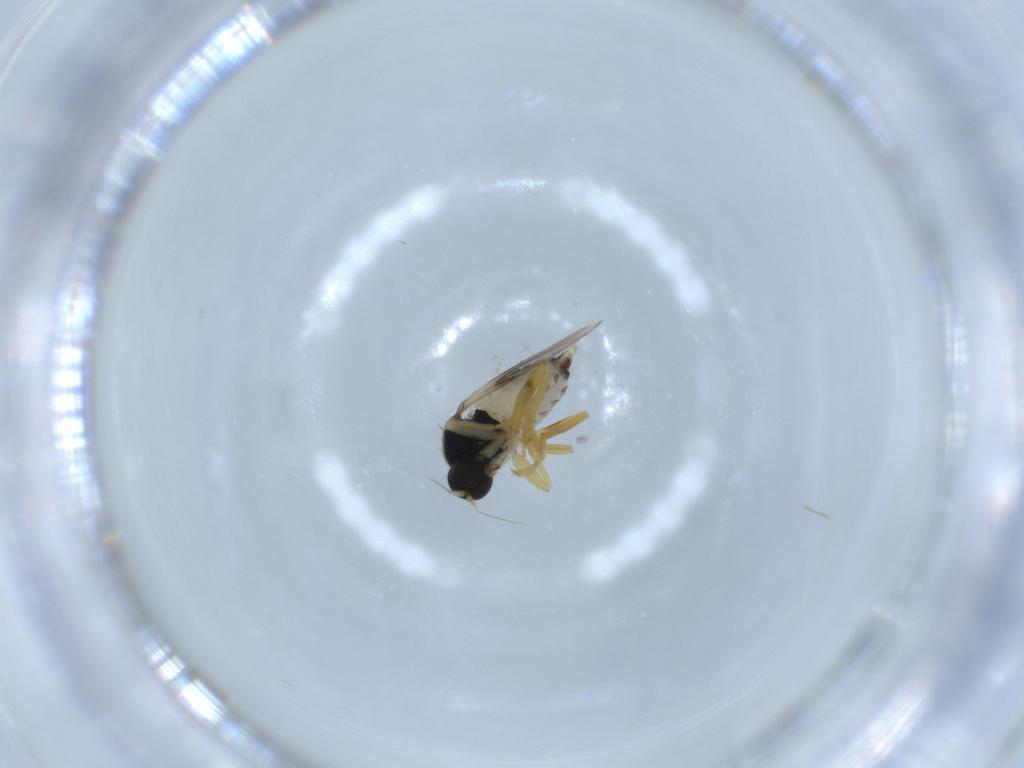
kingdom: Animalia
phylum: Arthropoda
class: Insecta
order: Diptera
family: Hybotidae
